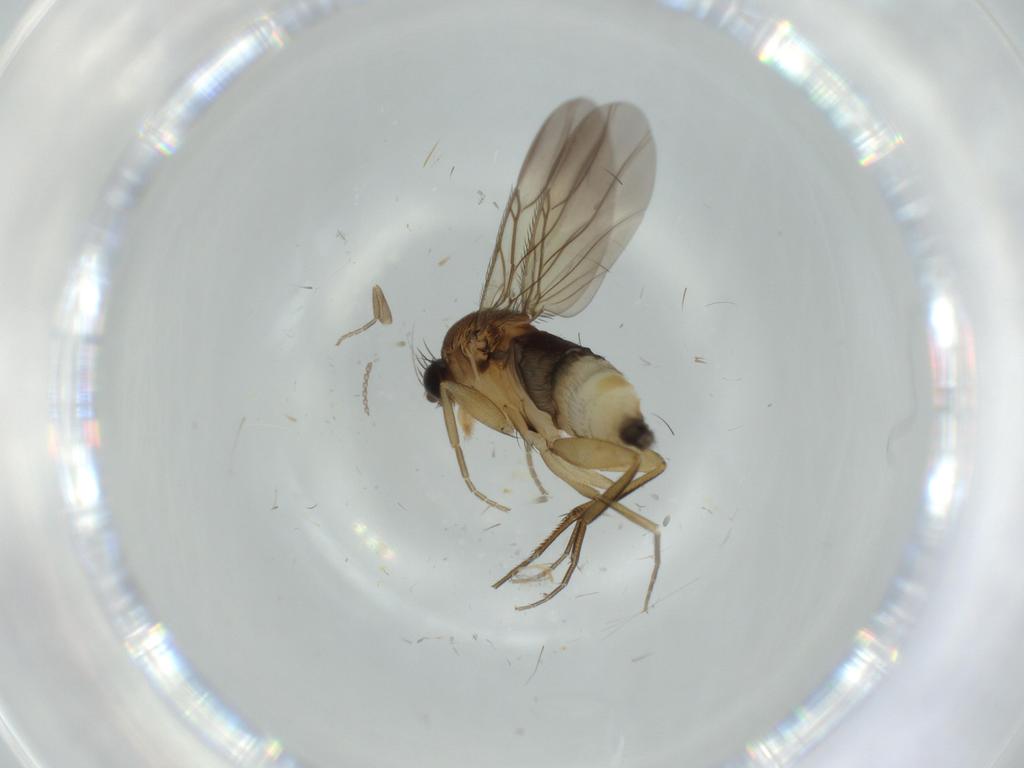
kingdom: Animalia
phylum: Arthropoda
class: Insecta
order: Diptera
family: Phoridae
